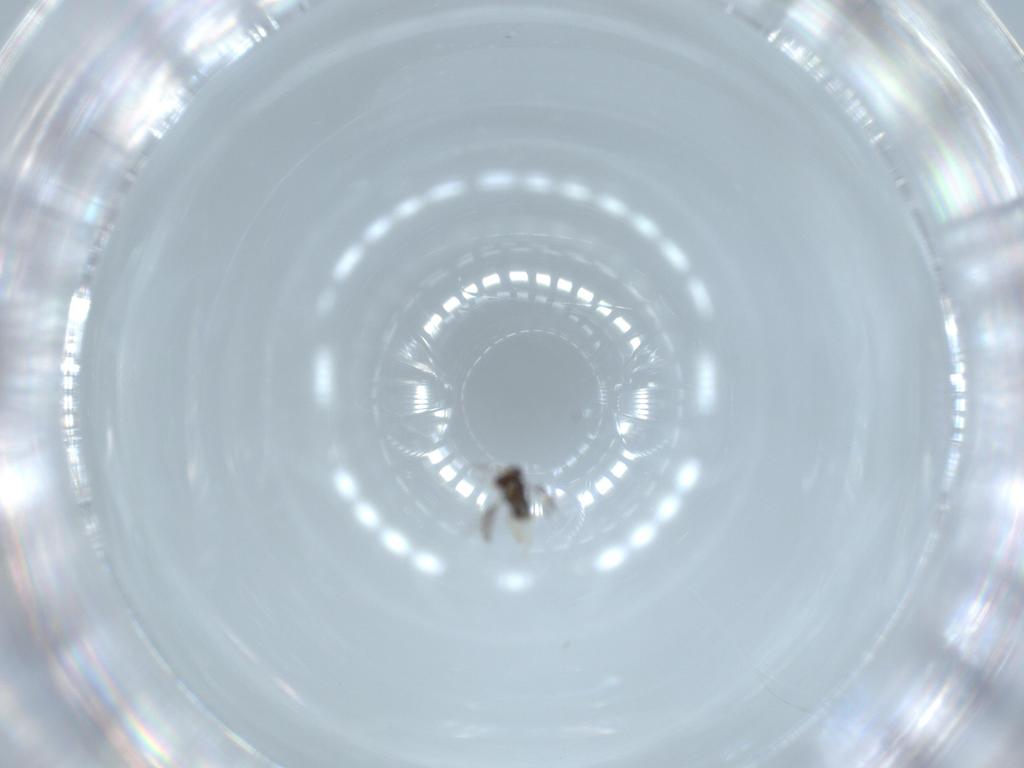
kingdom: Animalia
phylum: Arthropoda
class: Insecta
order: Hymenoptera
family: Aphelinidae
